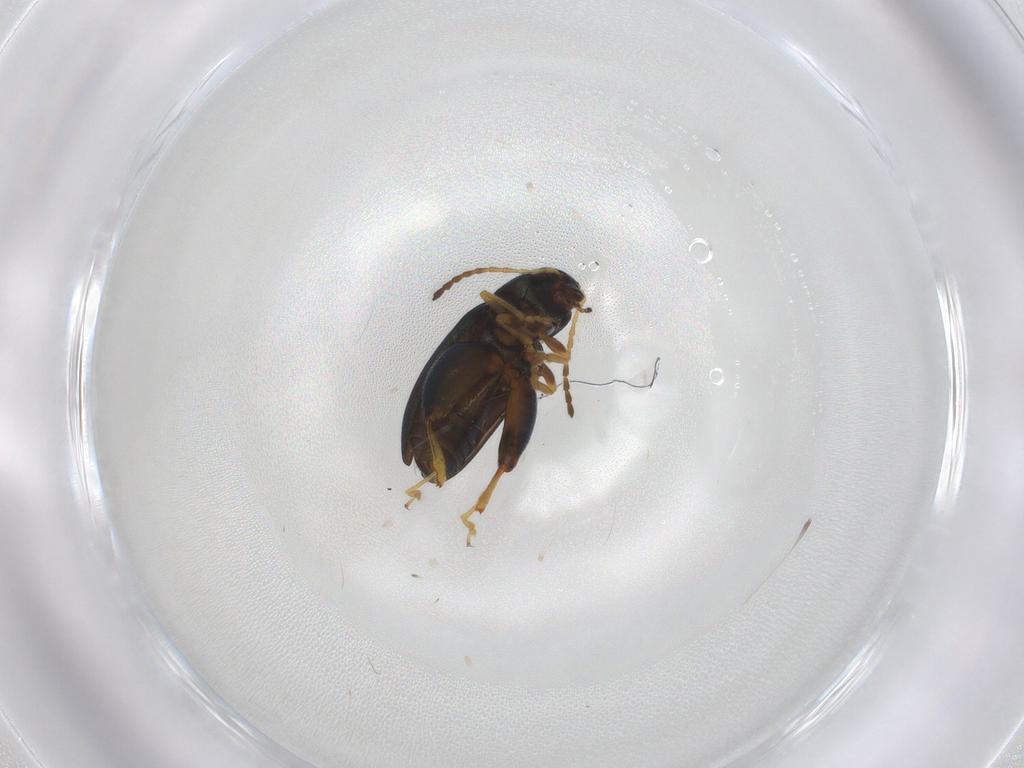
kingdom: Animalia
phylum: Arthropoda
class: Insecta
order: Coleoptera
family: Chrysomelidae
